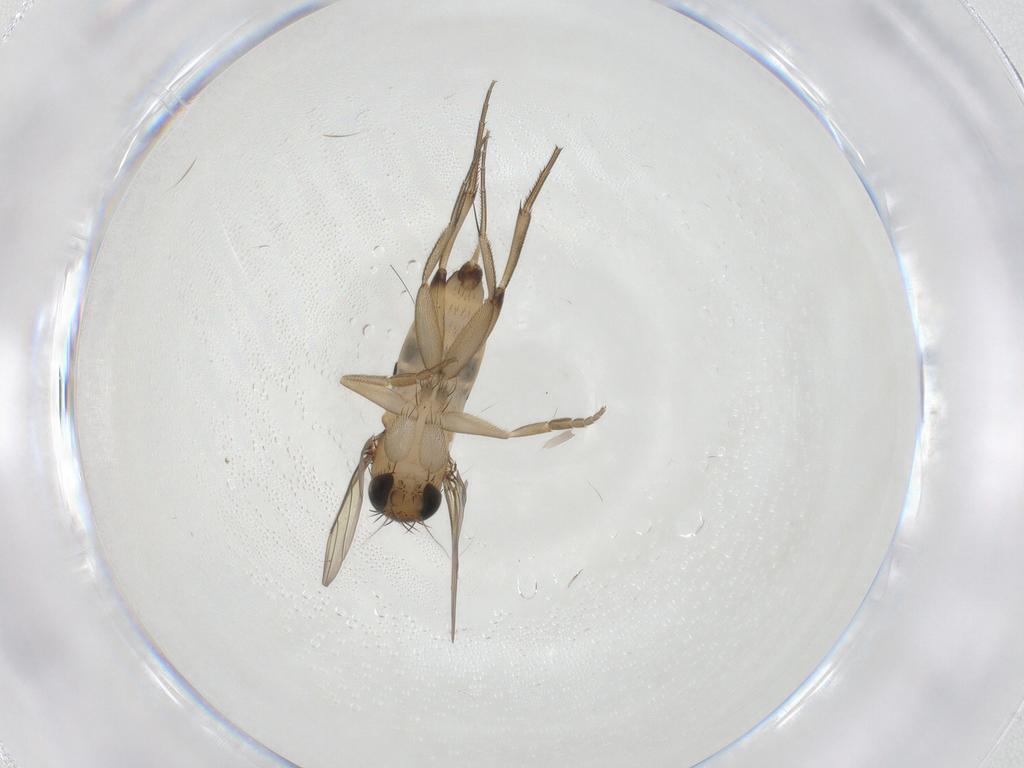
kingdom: Animalia
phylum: Arthropoda
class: Insecta
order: Diptera
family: Phoridae
